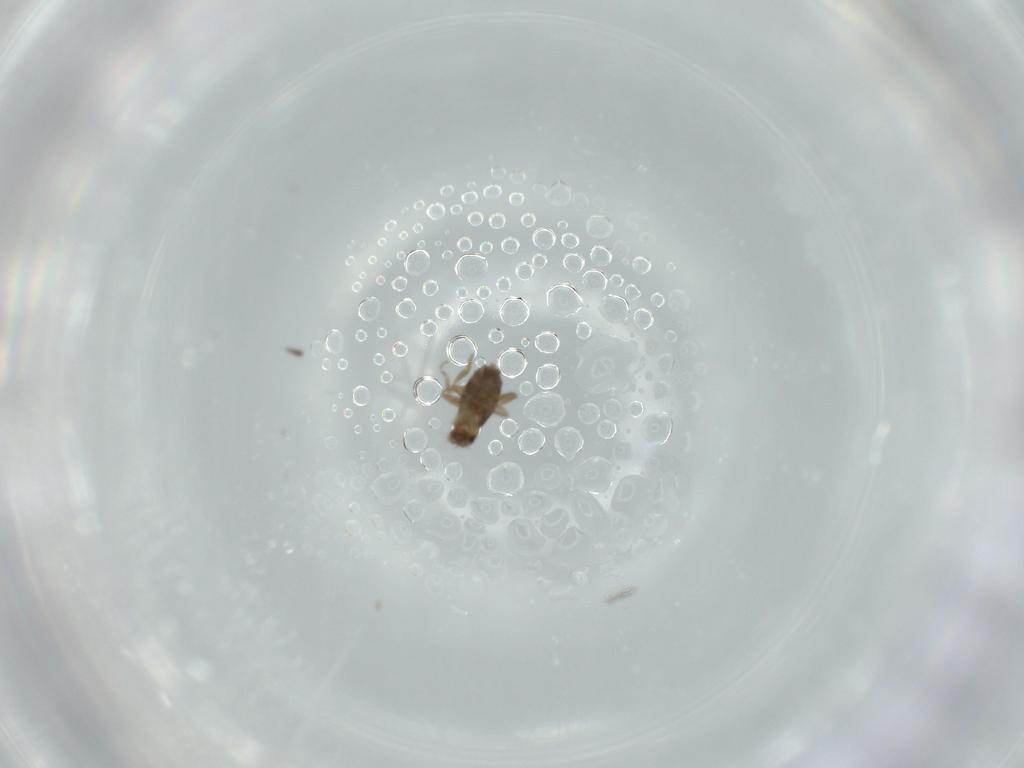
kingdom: Animalia
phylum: Arthropoda
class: Insecta
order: Diptera
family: Phoridae
